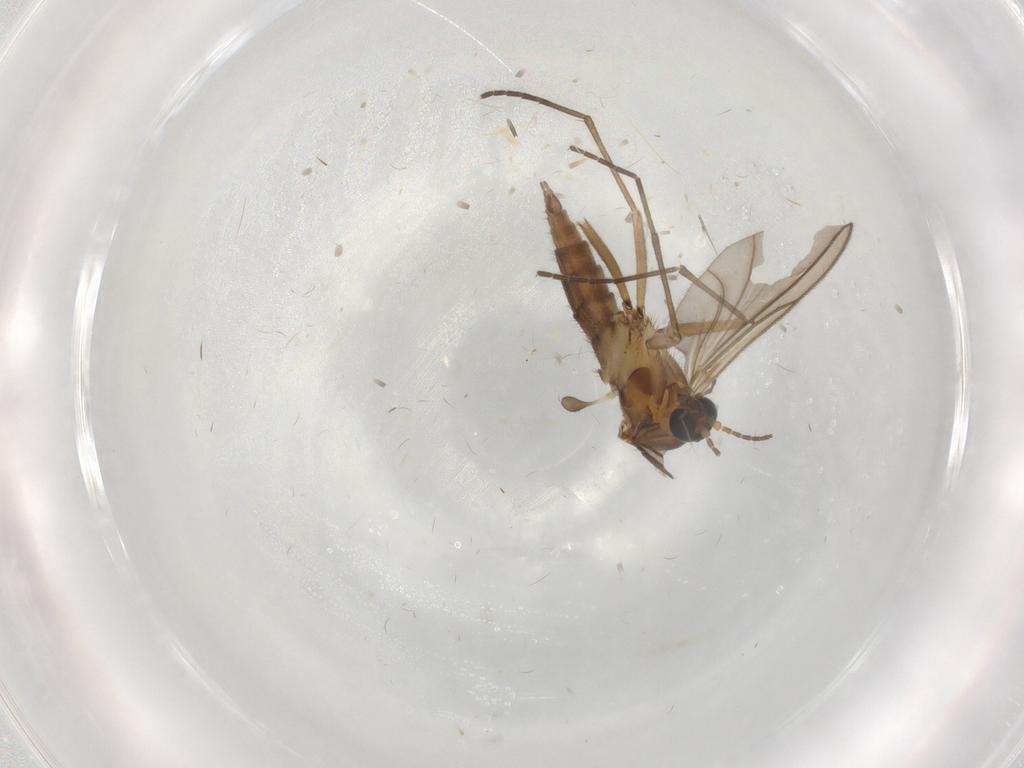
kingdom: Animalia
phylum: Arthropoda
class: Insecta
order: Diptera
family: Sciaridae
